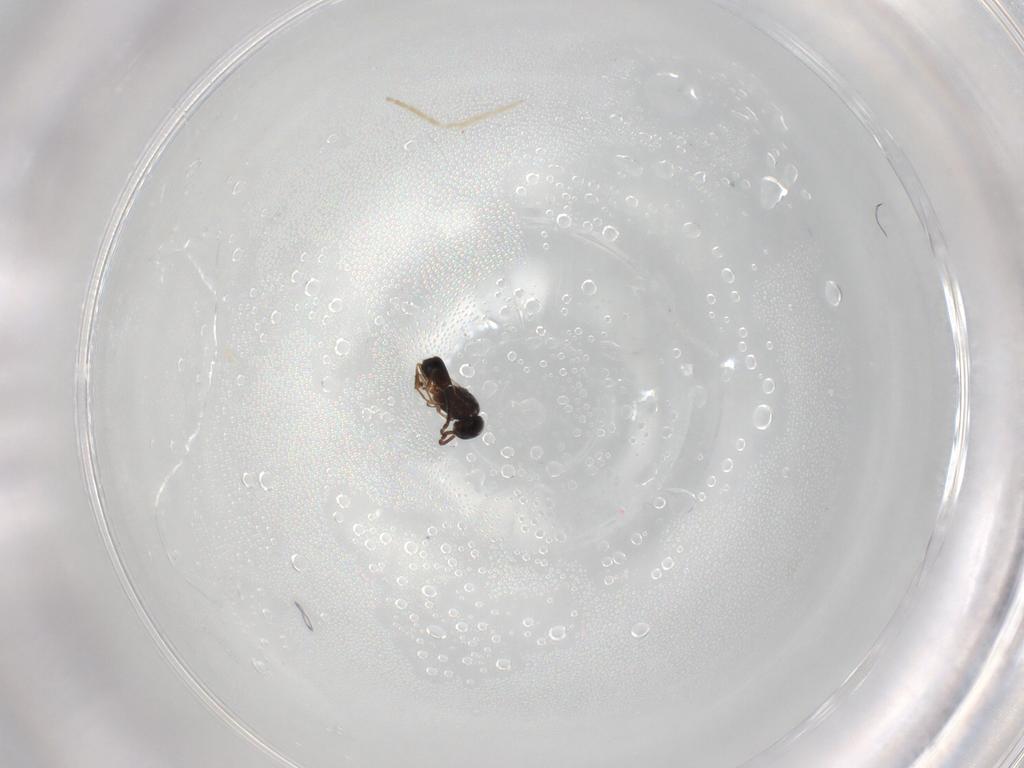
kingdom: Animalia
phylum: Arthropoda
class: Insecta
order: Hymenoptera
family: Scelionidae
